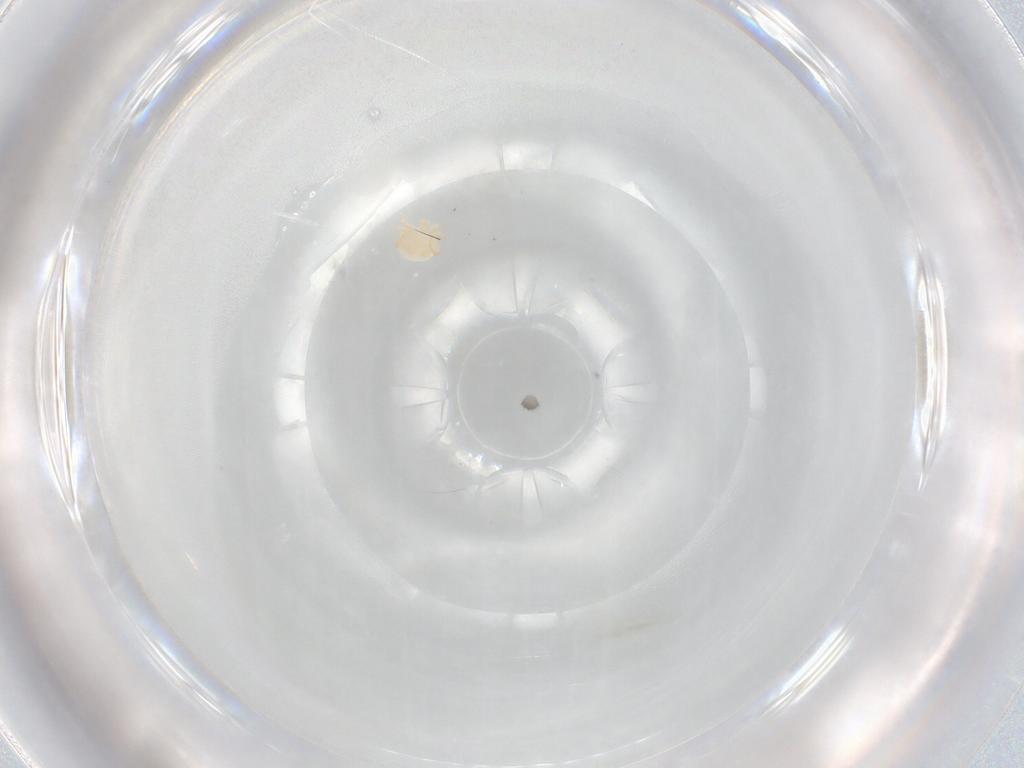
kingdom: Animalia
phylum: Arthropoda
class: Arachnida
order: Trombidiformes
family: Sperchontidae
